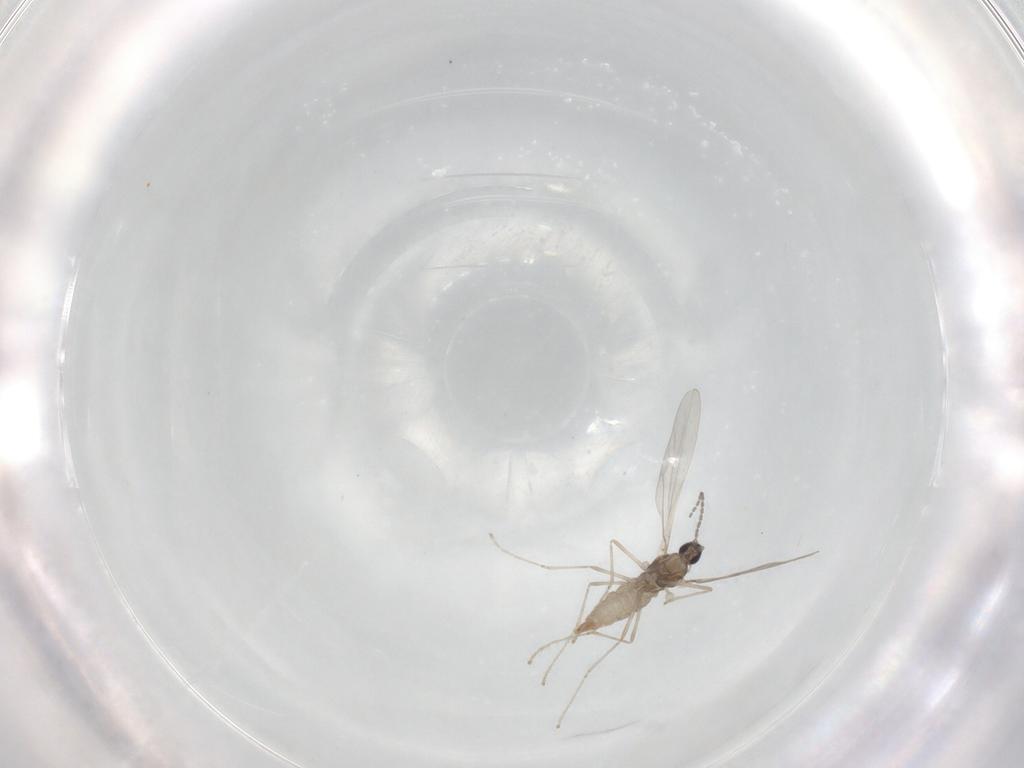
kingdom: Animalia
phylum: Arthropoda
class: Insecta
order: Diptera
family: Cecidomyiidae
